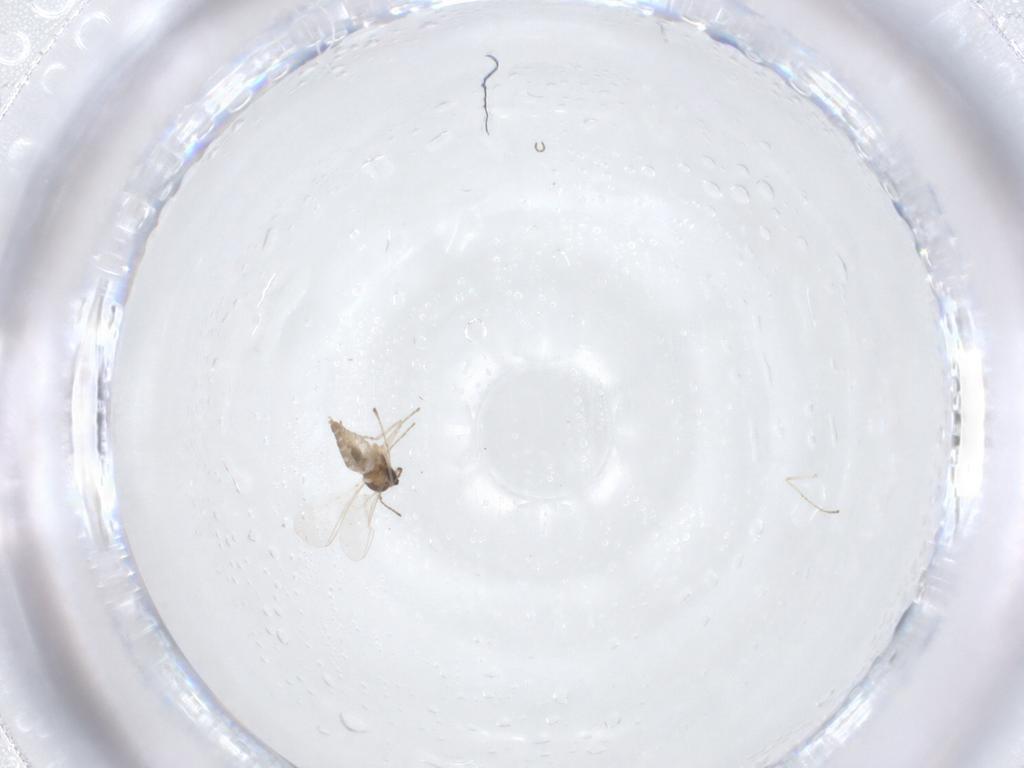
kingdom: Animalia
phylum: Arthropoda
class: Insecta
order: Diptera
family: Cecidomyiidae
